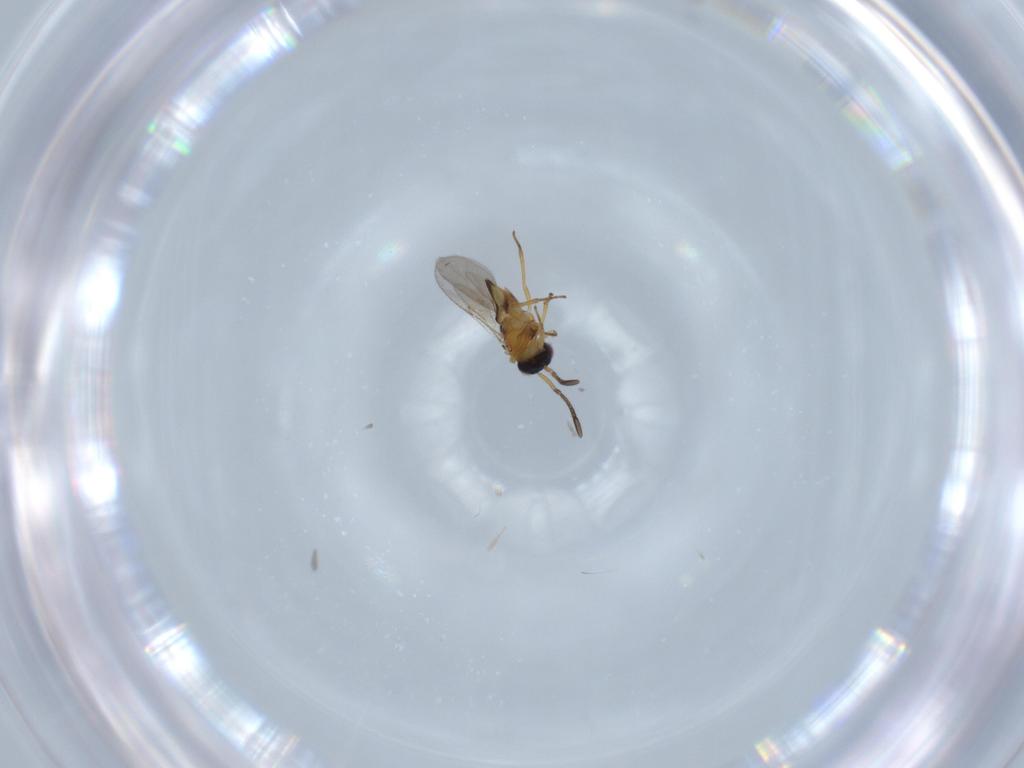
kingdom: Animalia
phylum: Arthropoda
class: Insecta
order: Hymenoptera
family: Encyrtidae
